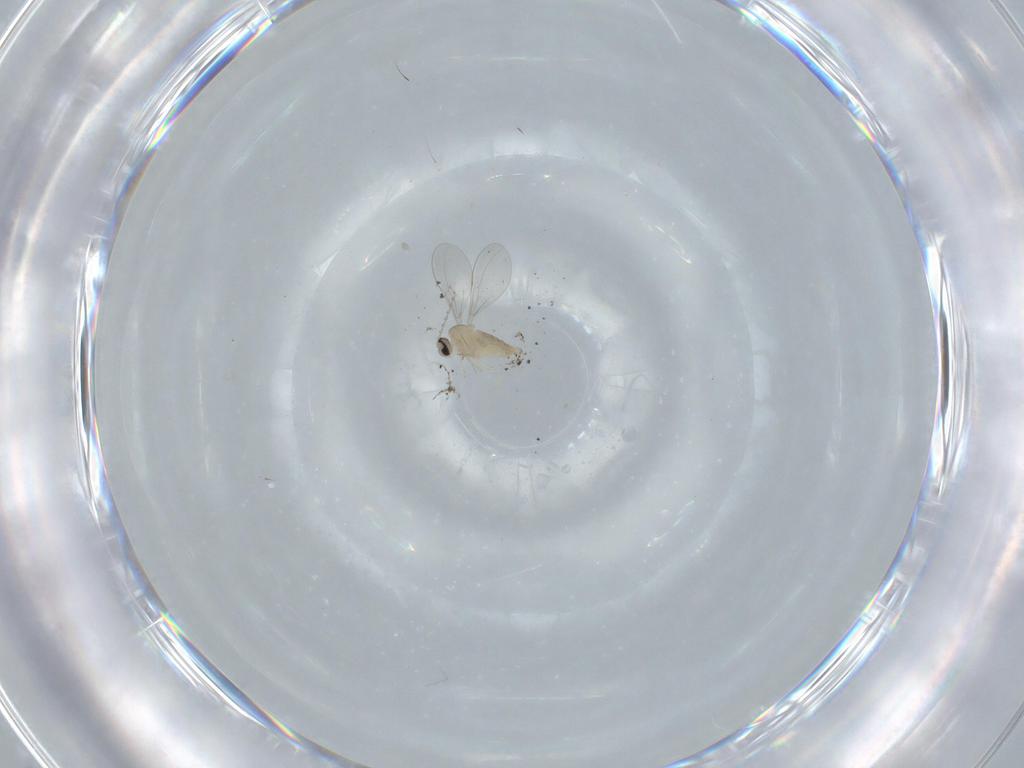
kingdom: Animalia
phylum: Arthropoda
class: Insecta
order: Diptera
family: Cecidomyiidae
